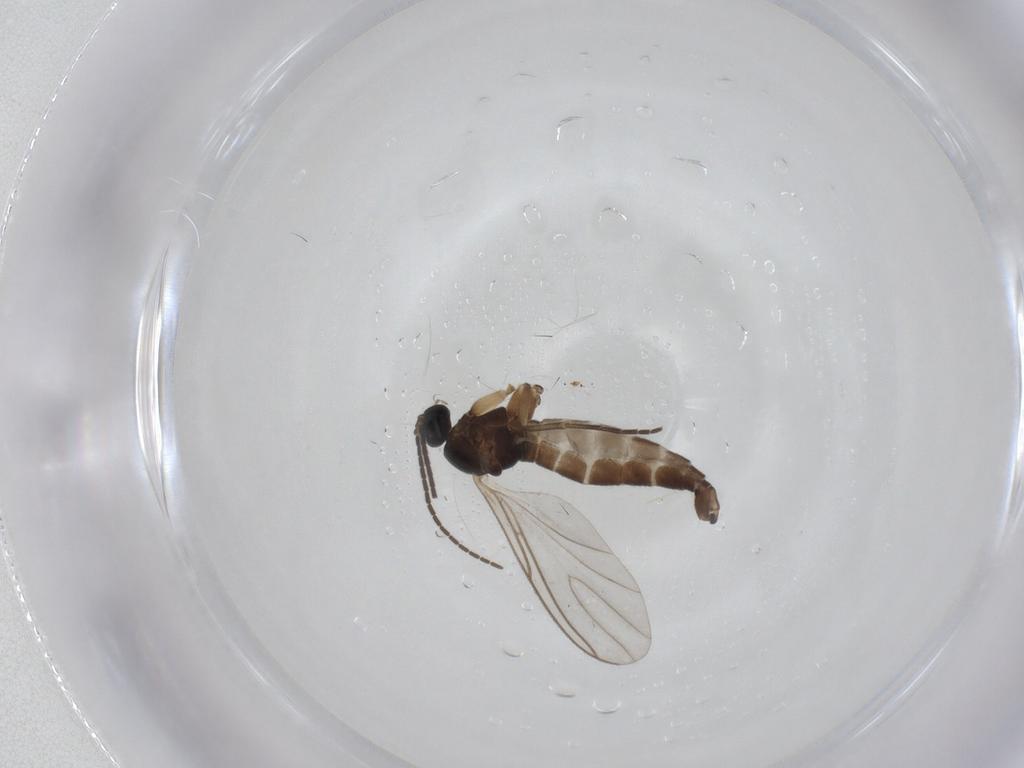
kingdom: Animalia
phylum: Arthropoda
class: Insecta
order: Diptera
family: Sciaridae
